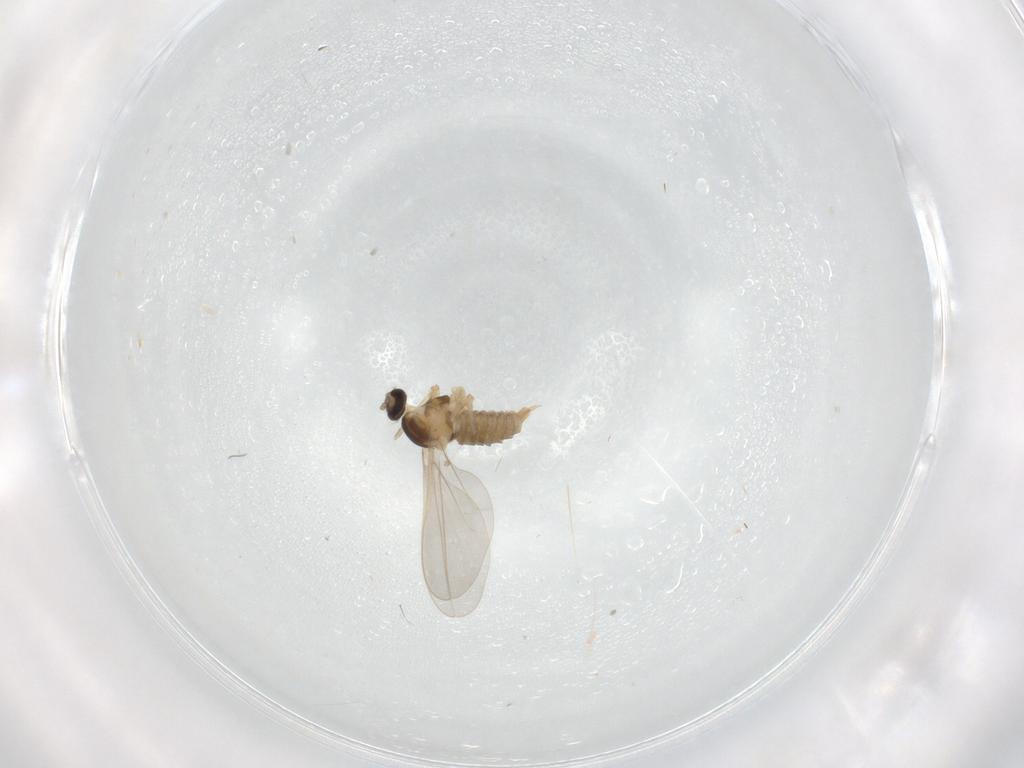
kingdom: Animalia
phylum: Arthropoda
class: Insecta
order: Diptera
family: Cecidomyiidae
